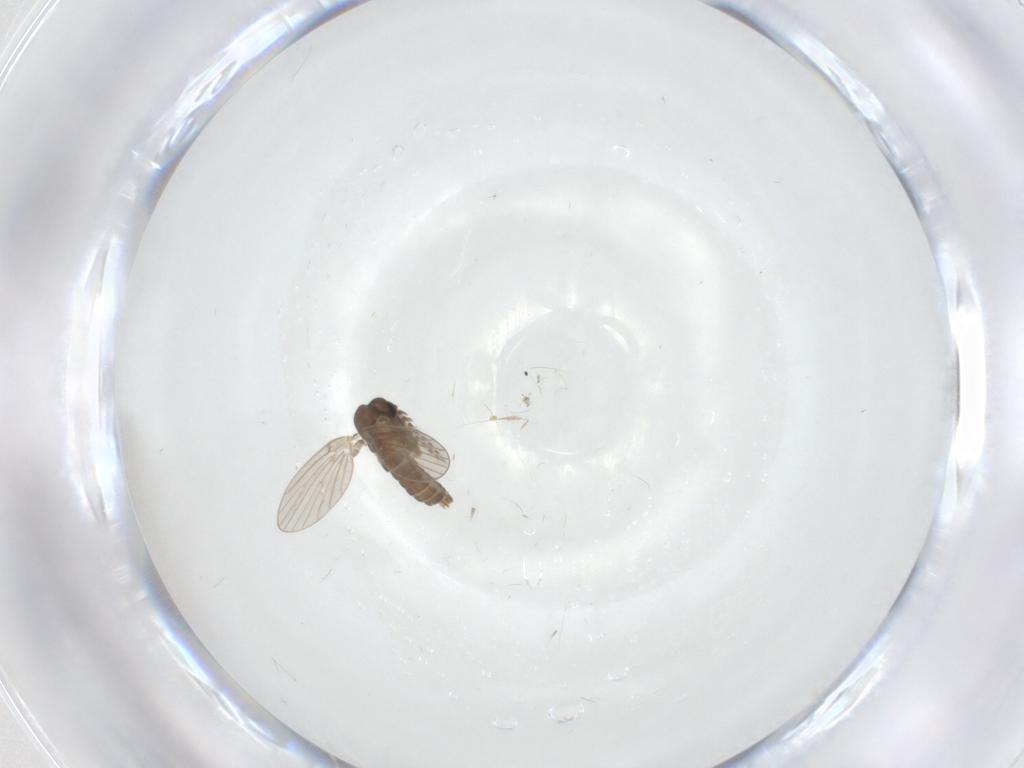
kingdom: Animalia
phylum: Arthropoda
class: Insecta
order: Diptera
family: Psychodidae
